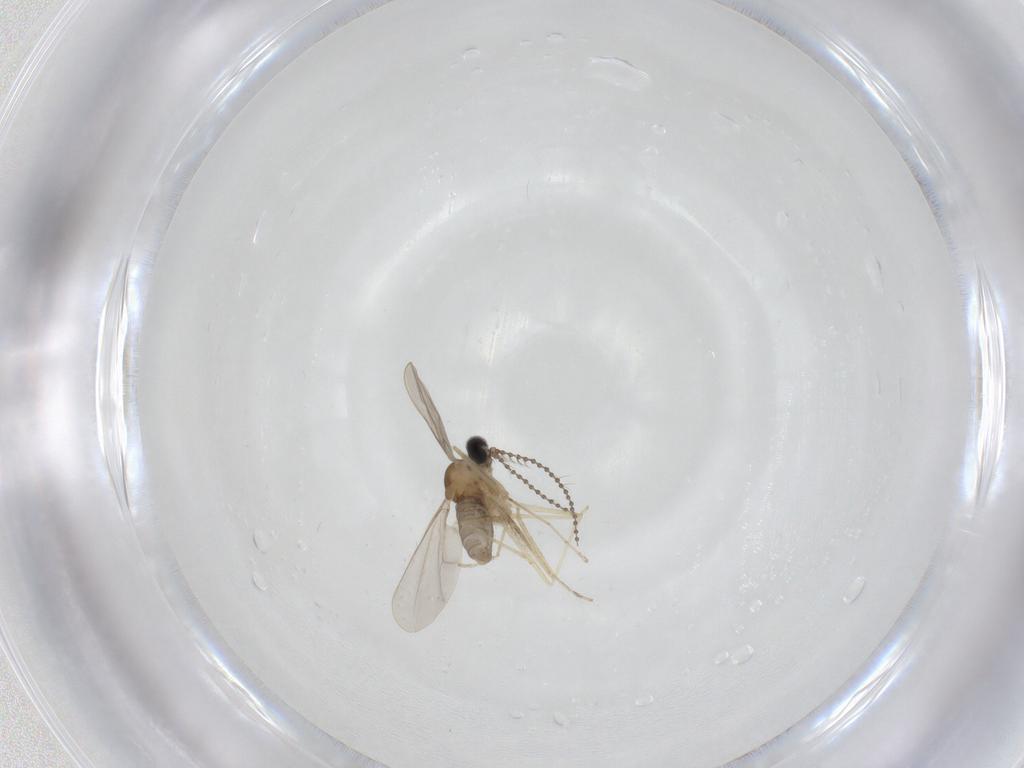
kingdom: Animalia
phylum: Arthropoda
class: Insecta
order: Diptera
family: Cecidomyiidae
